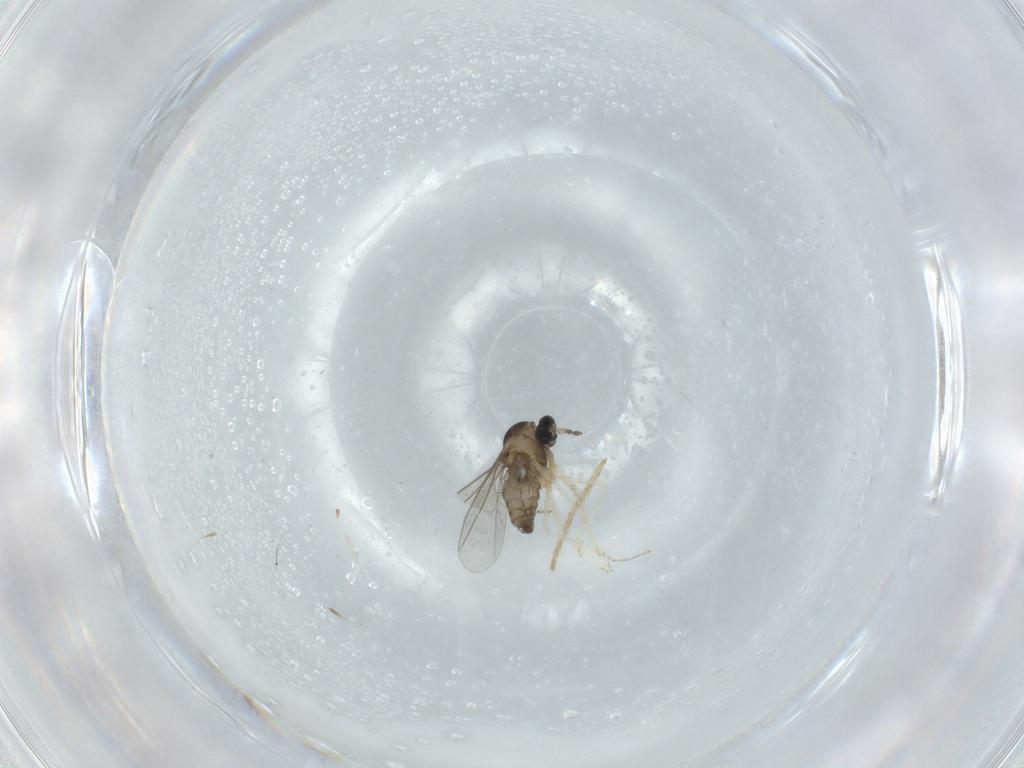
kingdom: Animalia
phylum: Arthropoda
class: Insecta
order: Diptera
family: Cecidomyiidae
